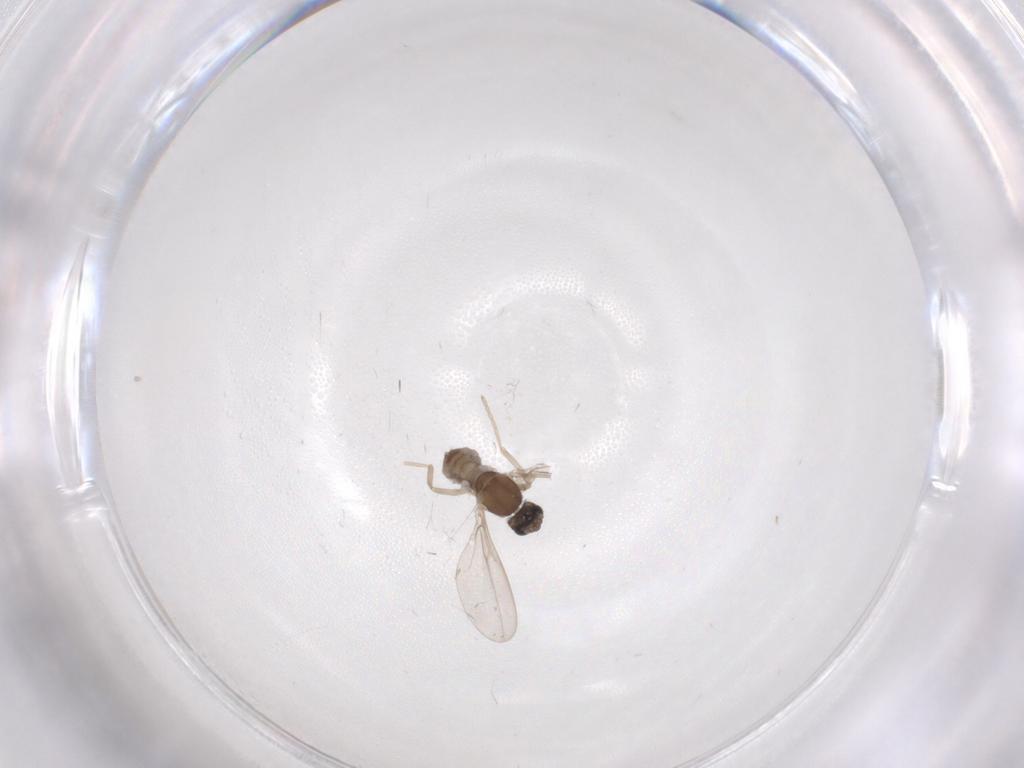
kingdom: Animalia
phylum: Arthropoda
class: Insecta
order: Diptera
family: Cecidomyiidae
